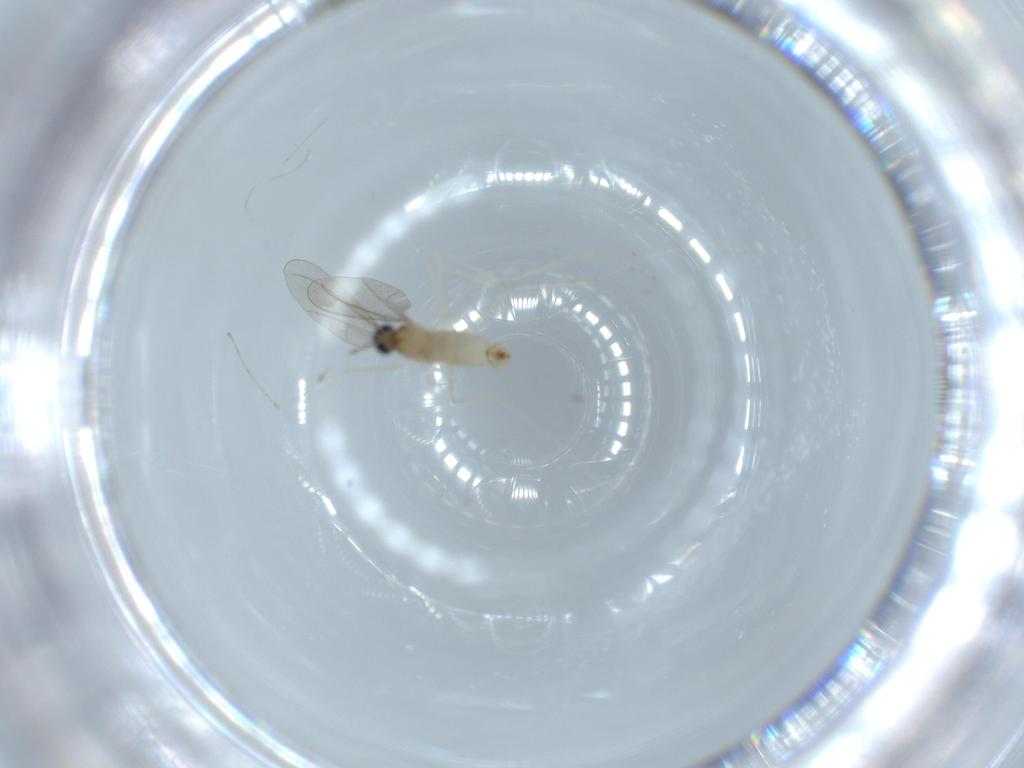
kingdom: Animalia
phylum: Arthropoda
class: Insecta
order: Diptera
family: Cecidomyiidae
